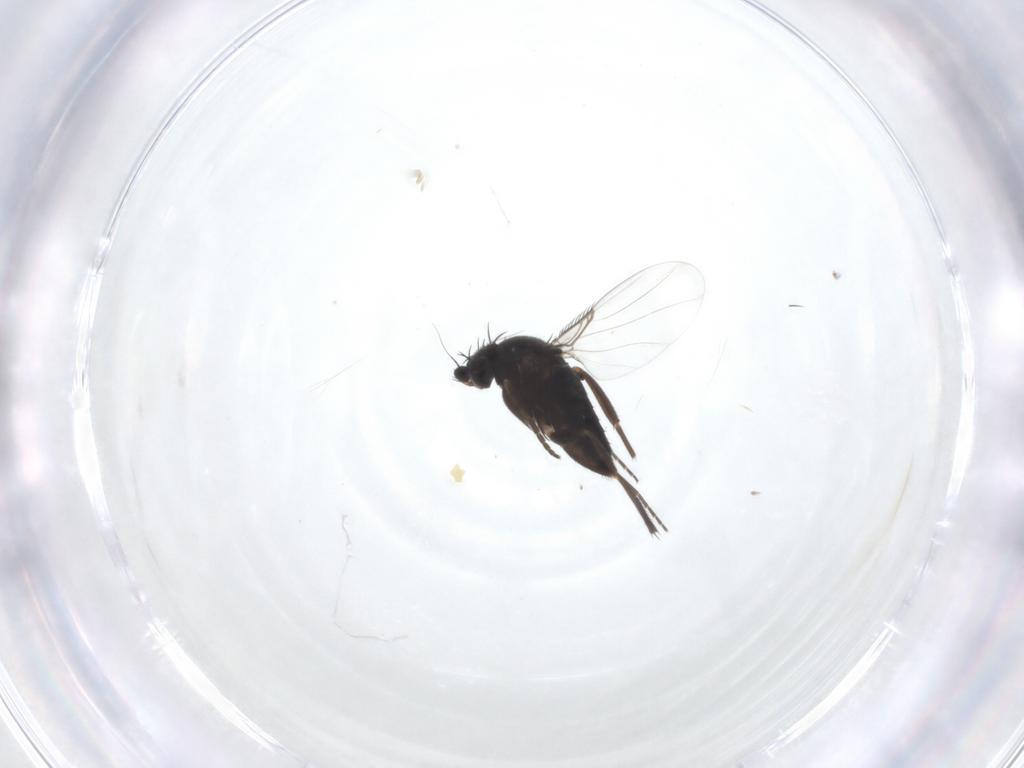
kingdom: Animalia
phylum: Arthropoda
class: Insecta
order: Diptera
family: Phoridae
